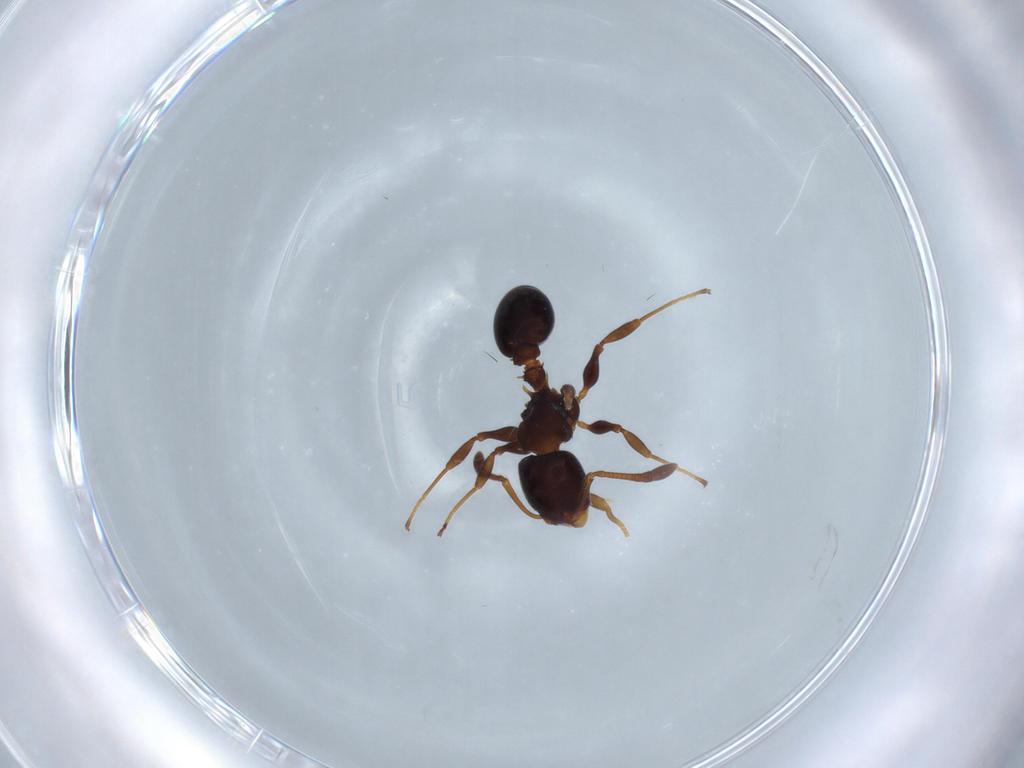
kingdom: Animalia
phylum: Arthropoda
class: Insecta
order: Hymenoptera
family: Formicidae
